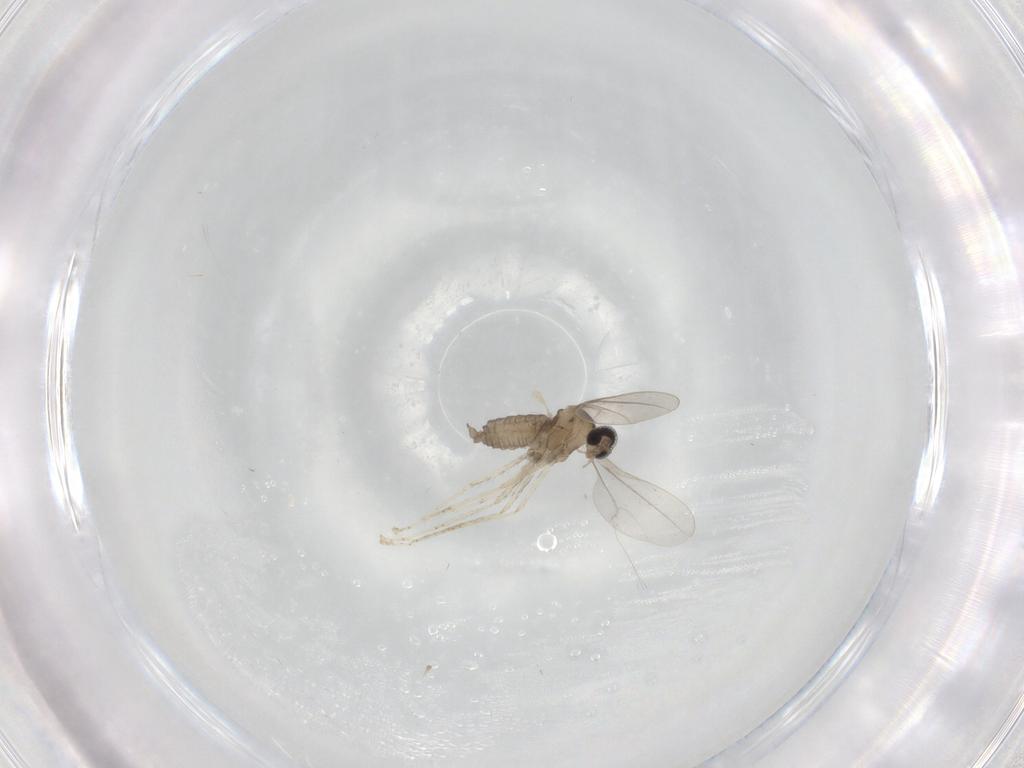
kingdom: Animalia
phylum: Arthropoda
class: Insecta
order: Diptera
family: Cecidomyiidae
